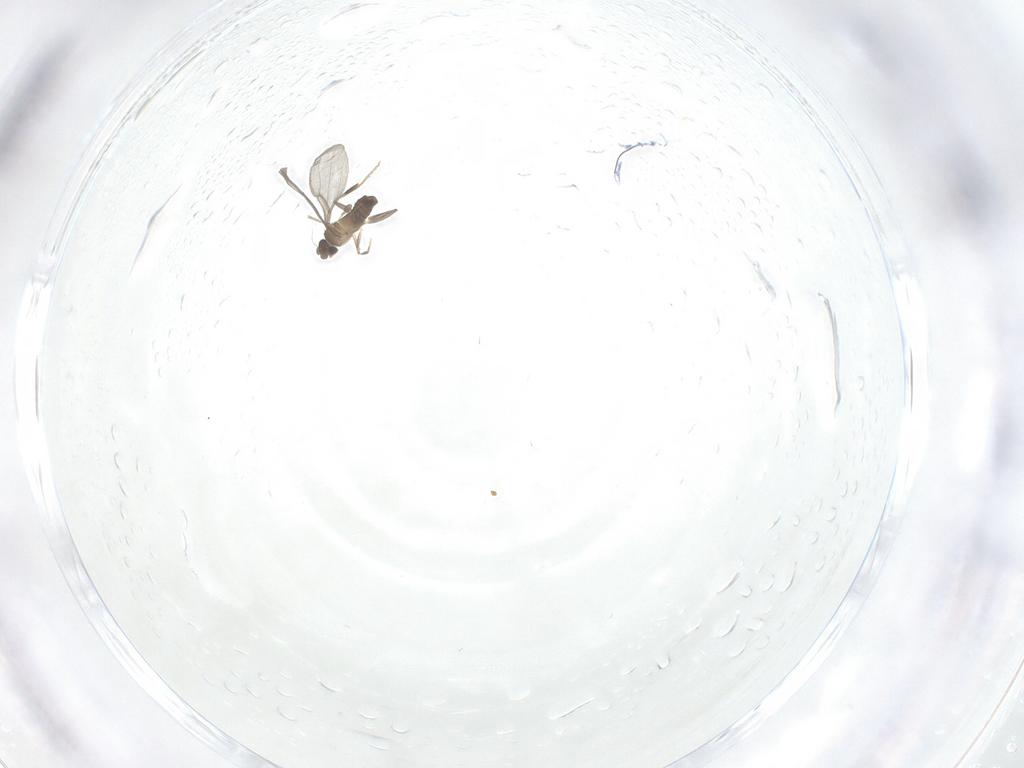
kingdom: Animalia
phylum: Arthropoda
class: Insecta
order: Diptera
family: Phoridae
